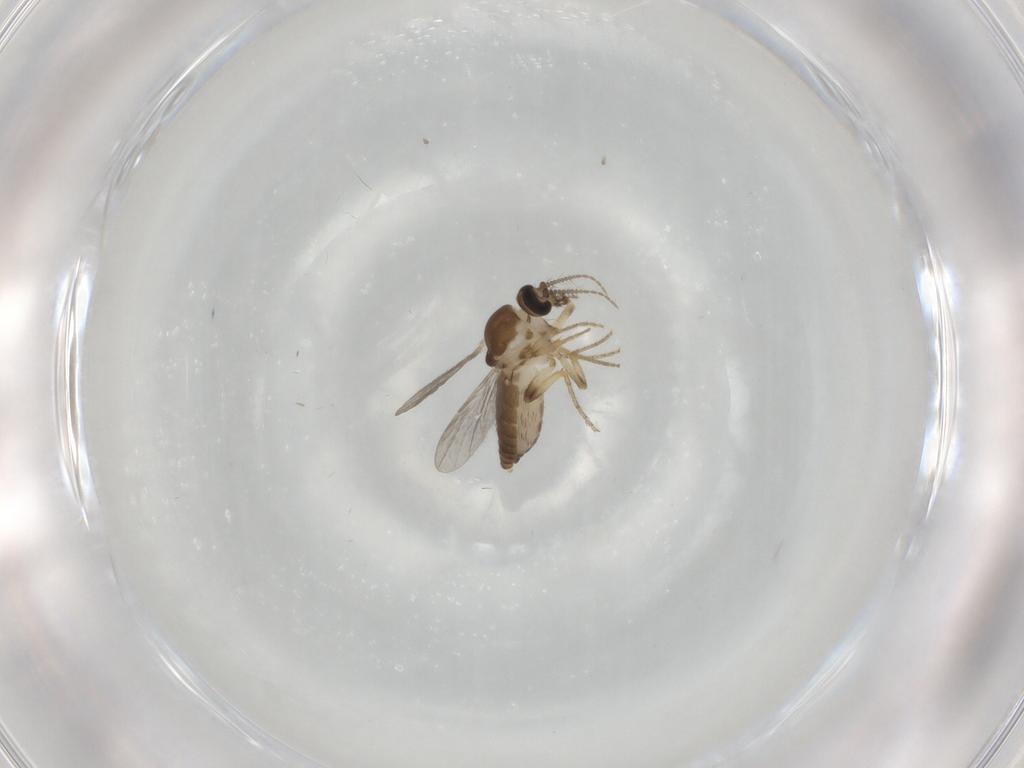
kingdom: Animalia
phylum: Arthropoda
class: Insecta
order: Diptera
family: Ceratopogonidae
